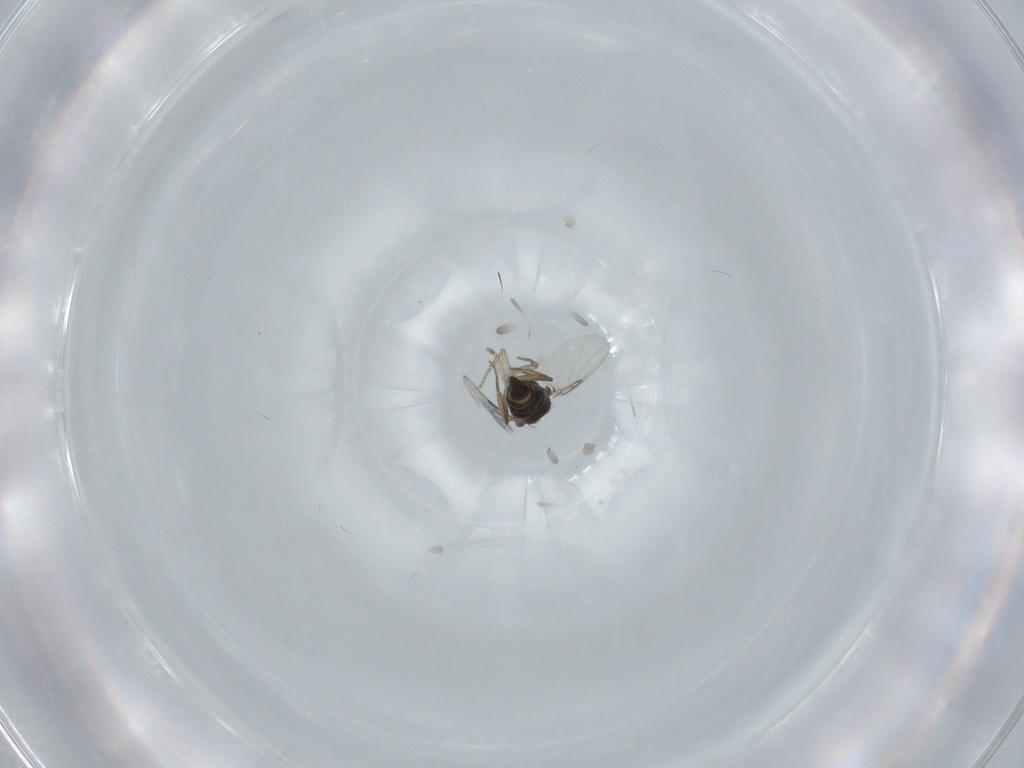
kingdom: Animalia
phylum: Arthropoda
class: Insecta
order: Diptera
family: Phoridae
